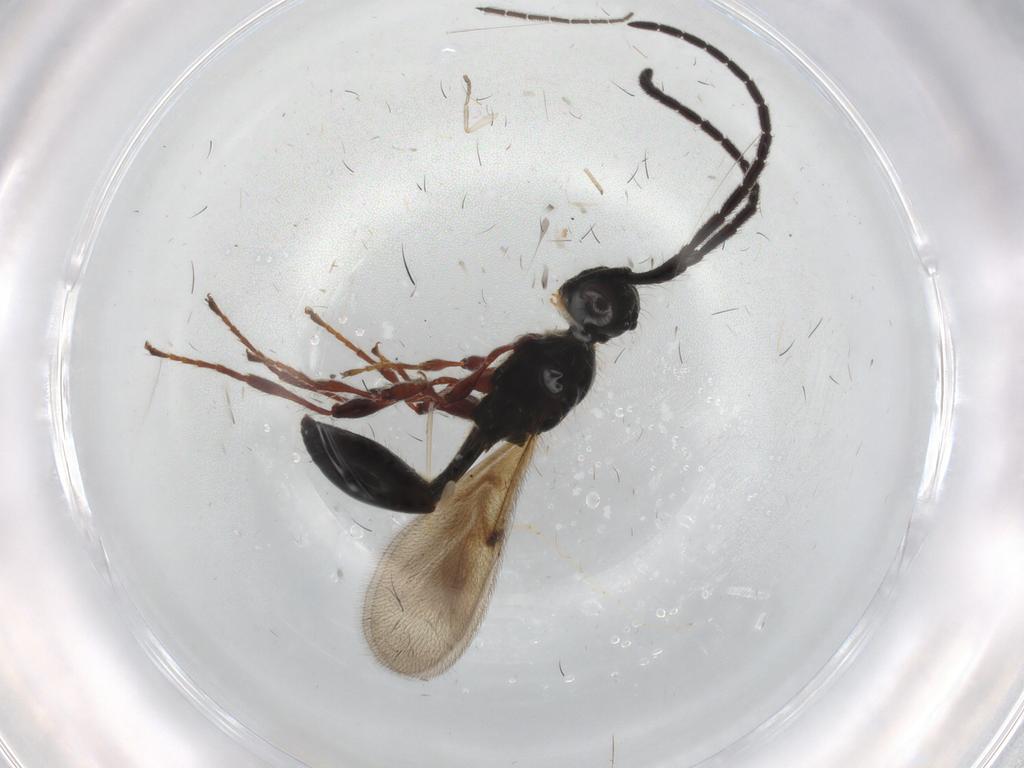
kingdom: Animalia
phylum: Arthropoda
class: Insecta
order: Hymenoptera
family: Diapriidae
